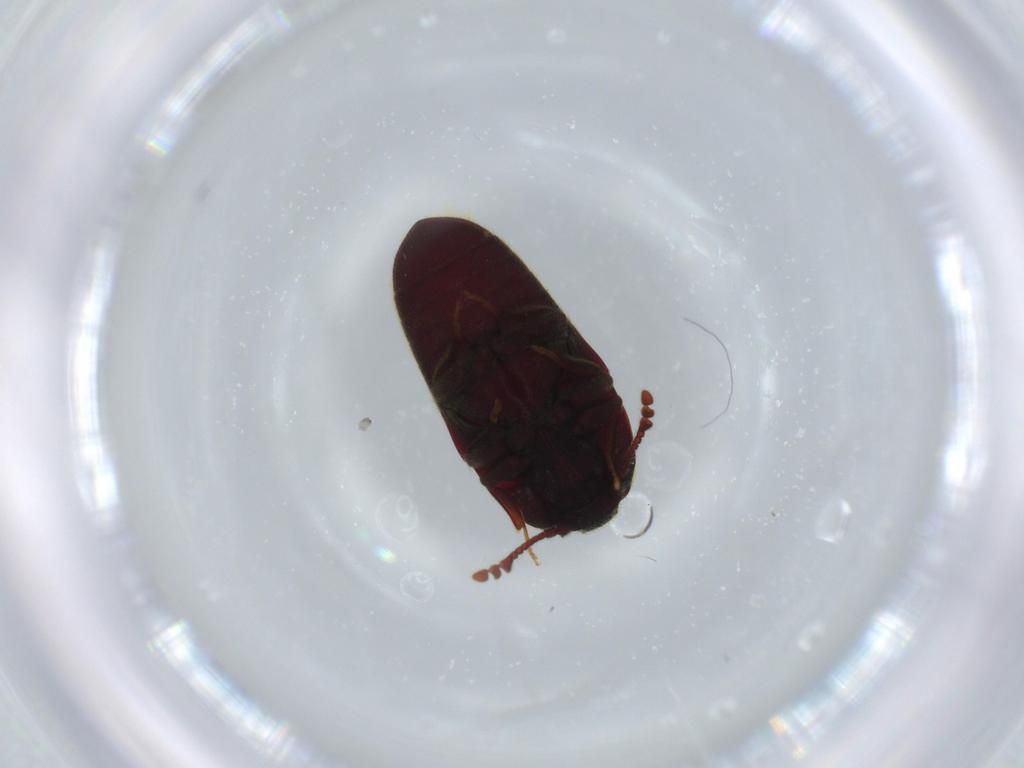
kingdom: Animalia
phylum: Arthropoda
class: Insecta
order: Coleoptera
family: Throscidae
